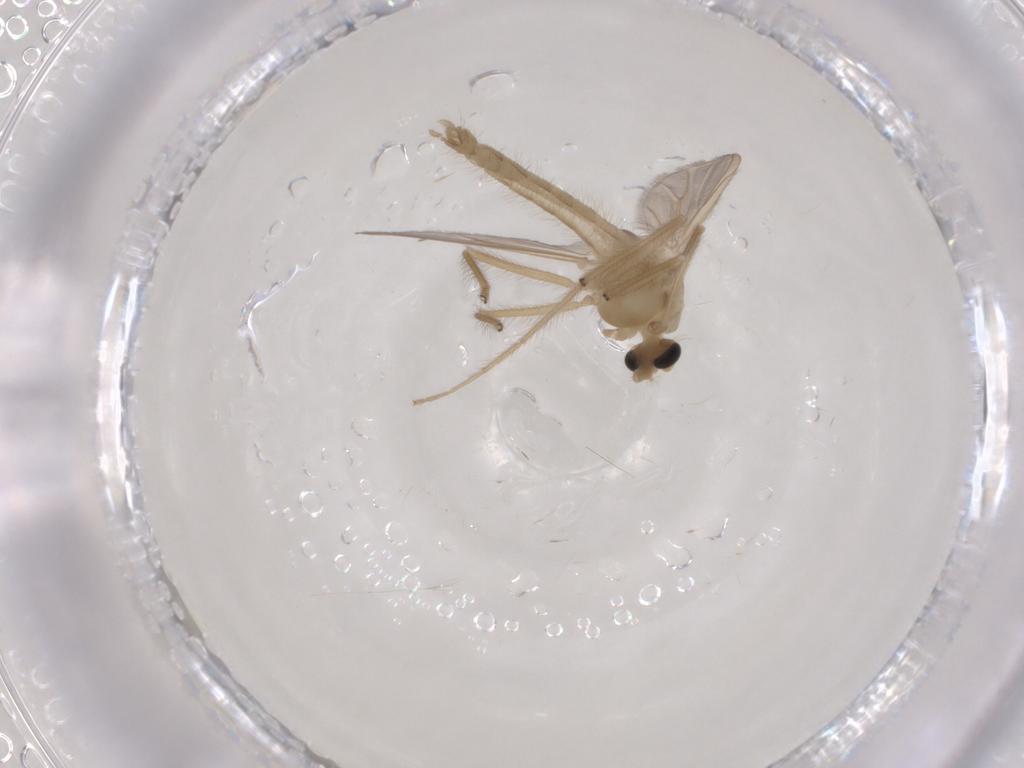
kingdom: Animalia
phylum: Arthropoda
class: Insecta
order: Diptera
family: Chironomidae
